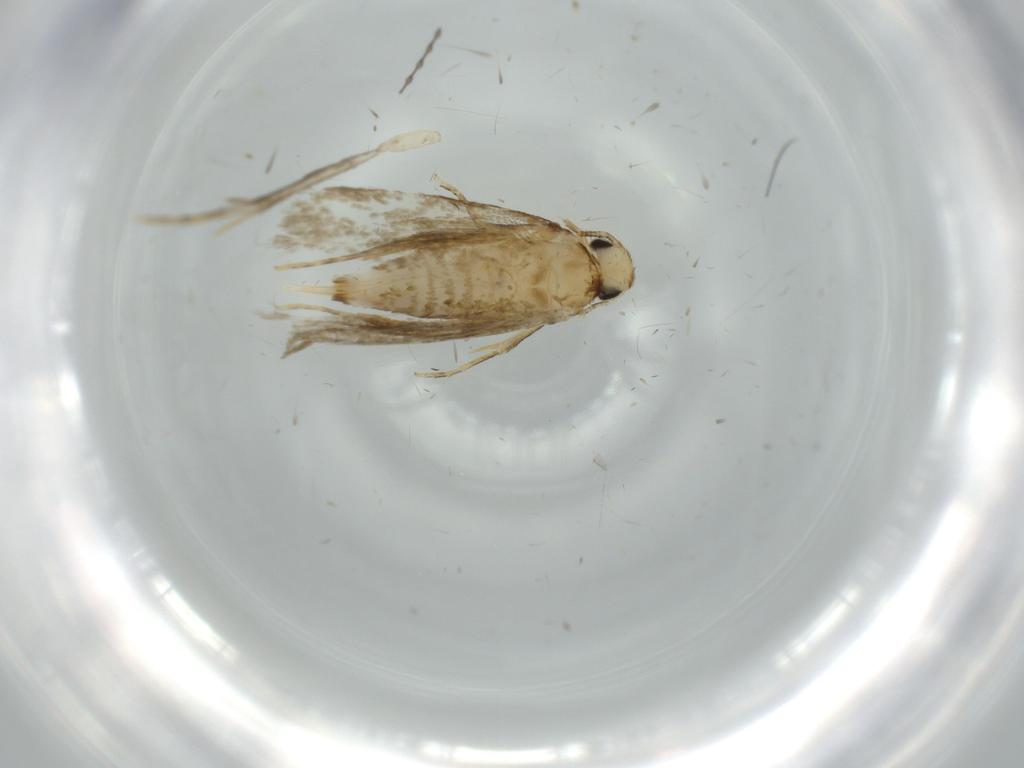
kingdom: Animalia
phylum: Arthropoda
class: Insecta
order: Lepidoptera
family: Tineidae
